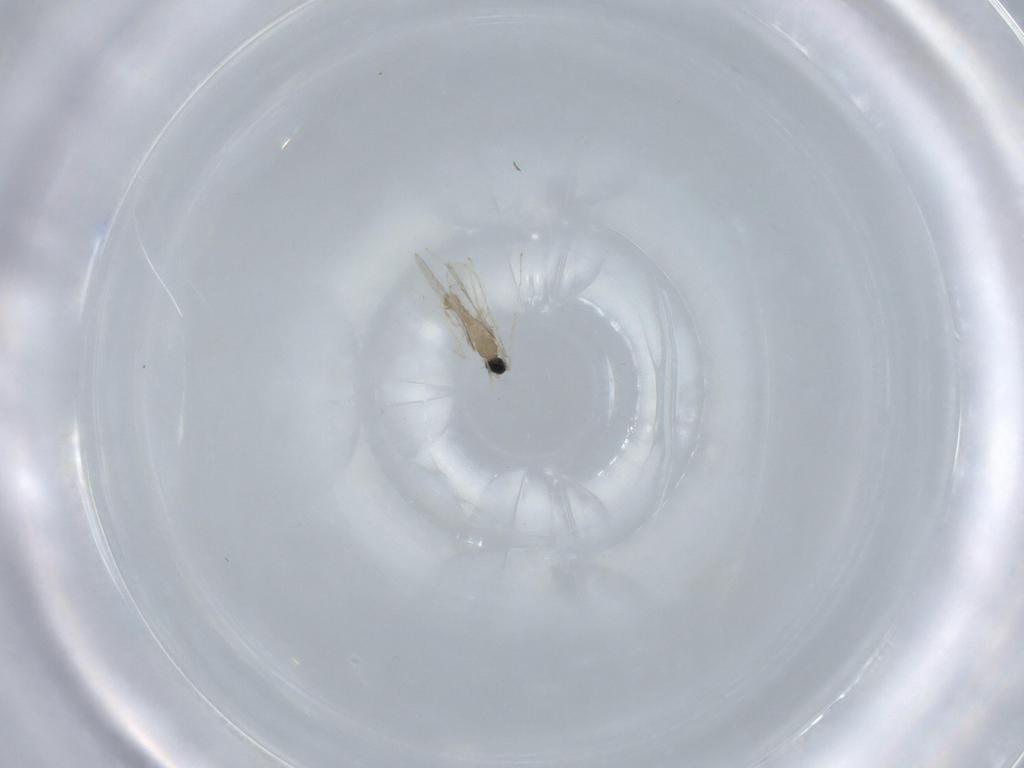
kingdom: Animalia
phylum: Arthropoda
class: Insecta
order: Diptera
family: Cecidomyiidae
